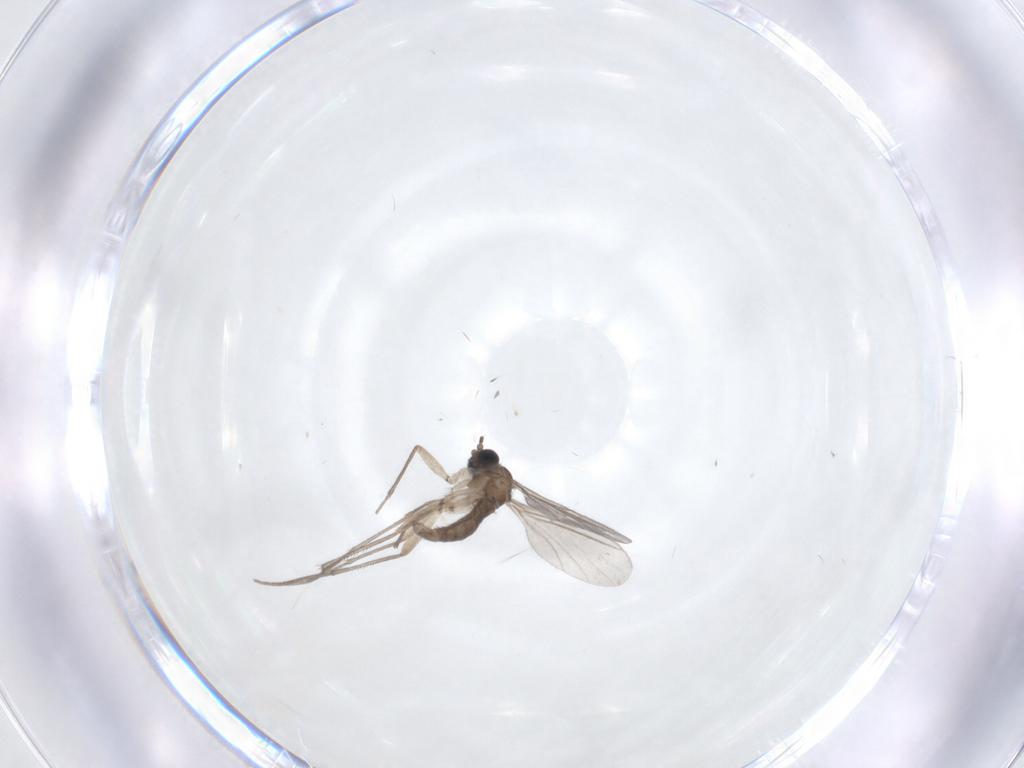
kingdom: Animalia
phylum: Arthropoda
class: Insecta
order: Diptera
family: Sciaridae
